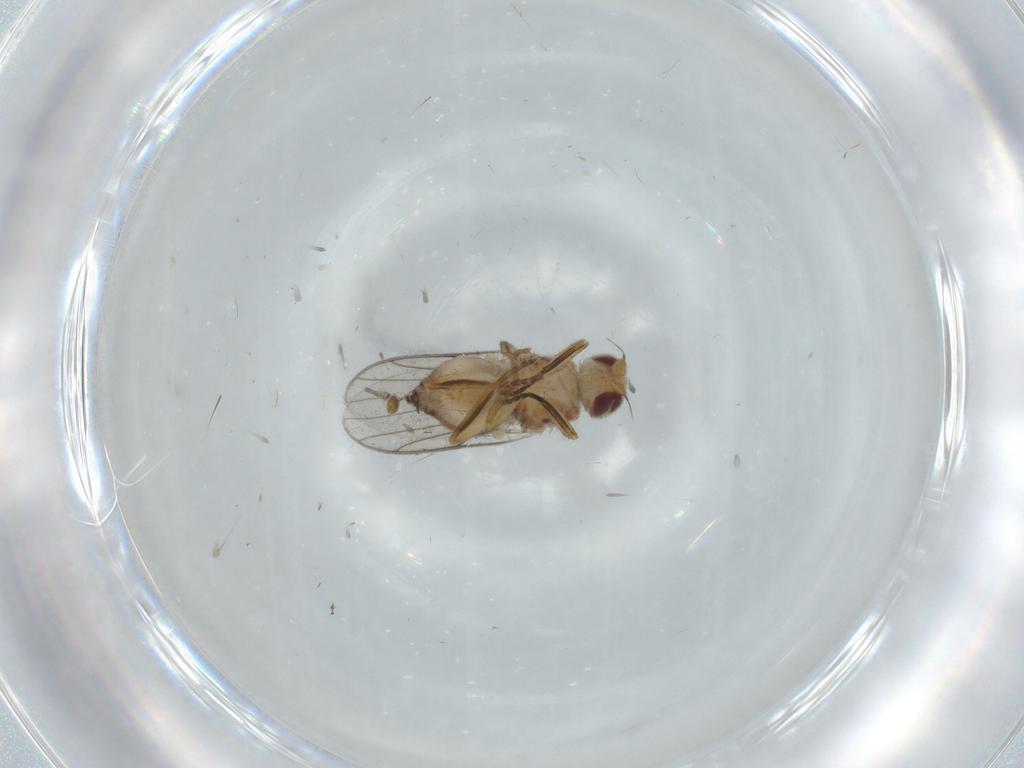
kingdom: Animalia
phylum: Arthropoda
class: Insecta
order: Diptera
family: Chloropidae
